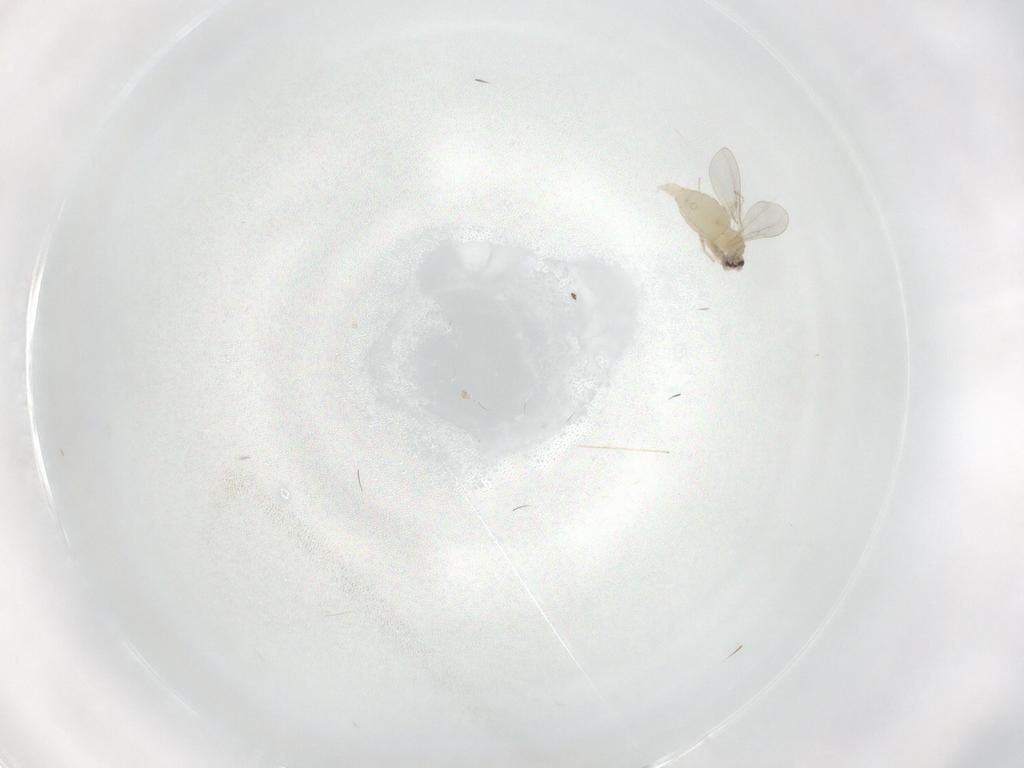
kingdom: Animalia
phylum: Arthropoda
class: Insecta
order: Diptera
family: Cecidomyiidae
